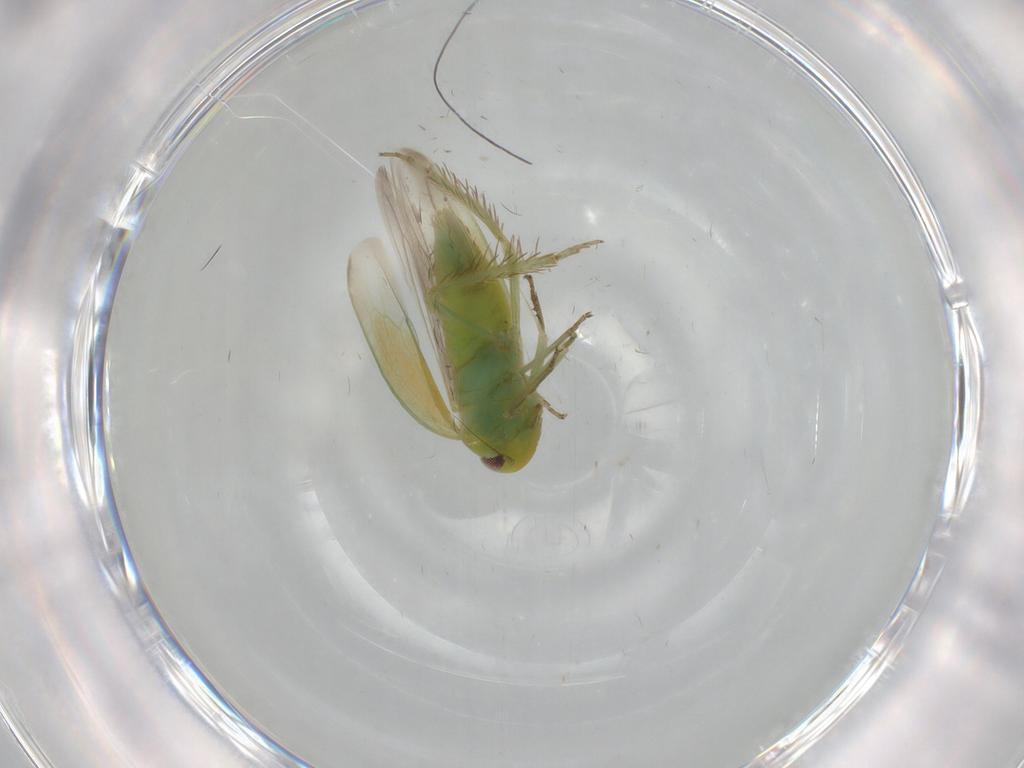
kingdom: Animalia
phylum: Arthropoda
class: Insecta
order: Hemiptera
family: Cicadellidae
